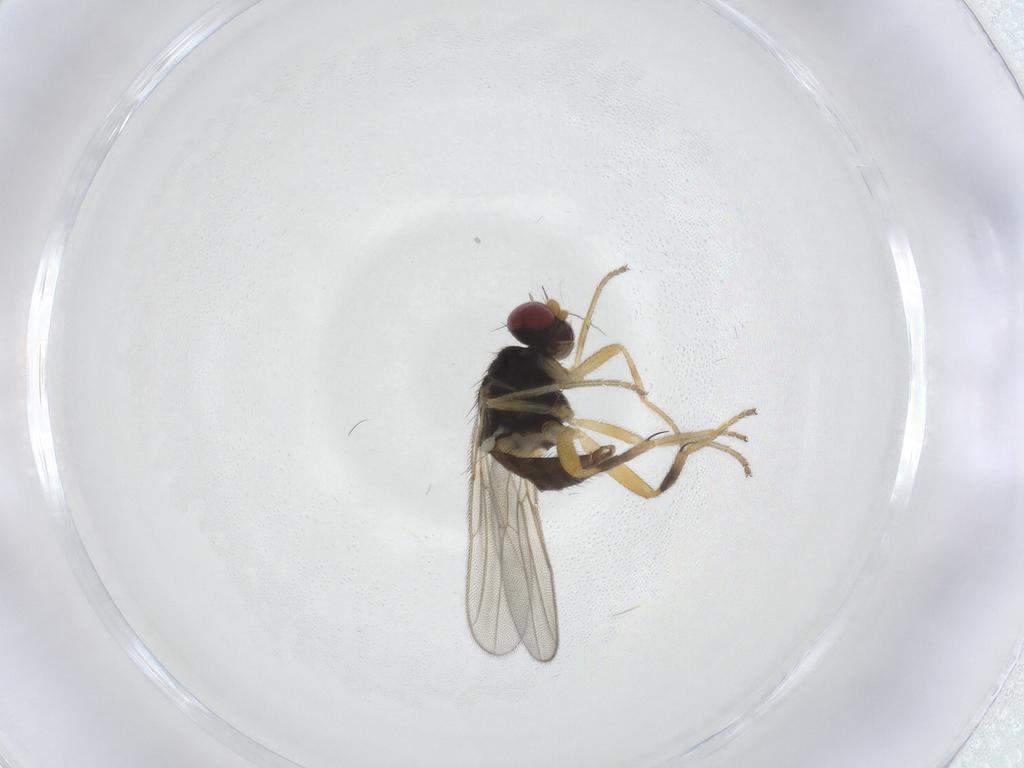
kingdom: Animalia
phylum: Arthropoda
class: Insecta
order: Diptera
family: Chloropidae
